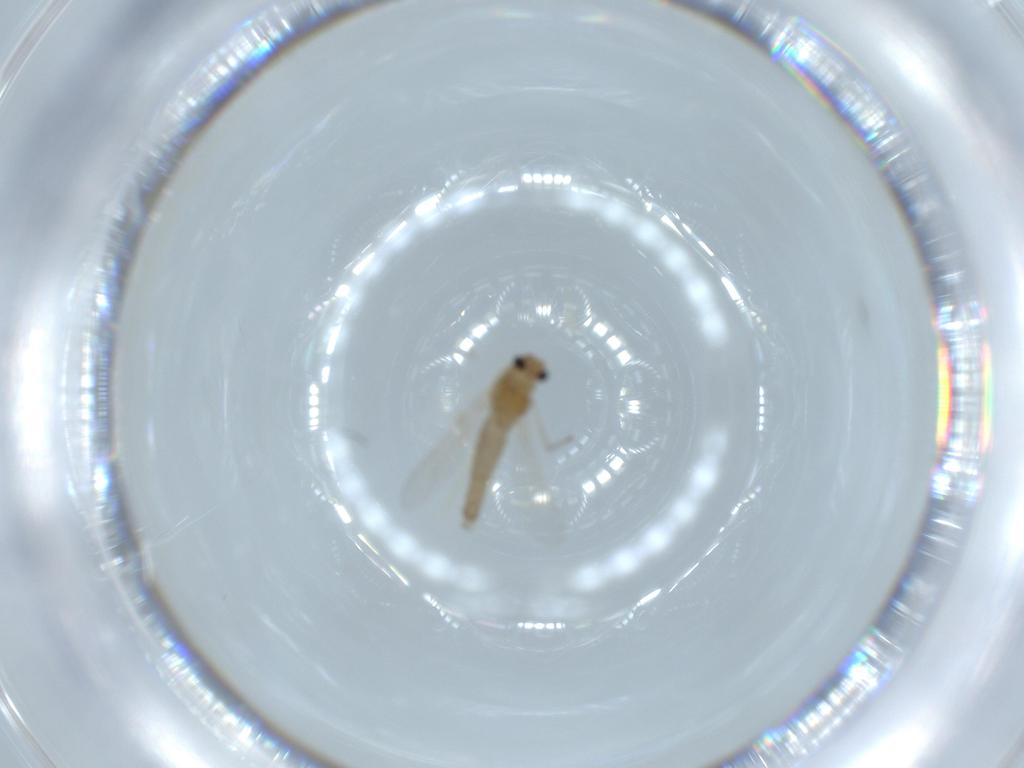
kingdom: Animalia
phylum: Arthropoda
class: Insecta
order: Diptera
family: Chironomidae
